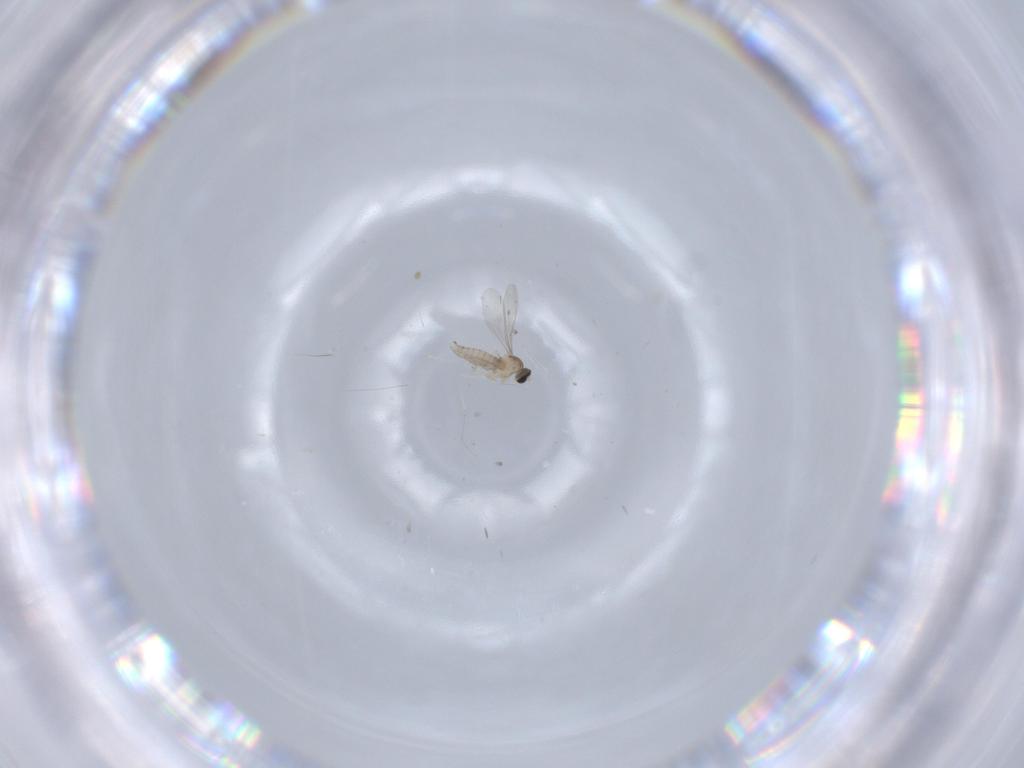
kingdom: Animalia
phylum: Arthropoda
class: Insecta
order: Diptera
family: Cecidomyiidae
